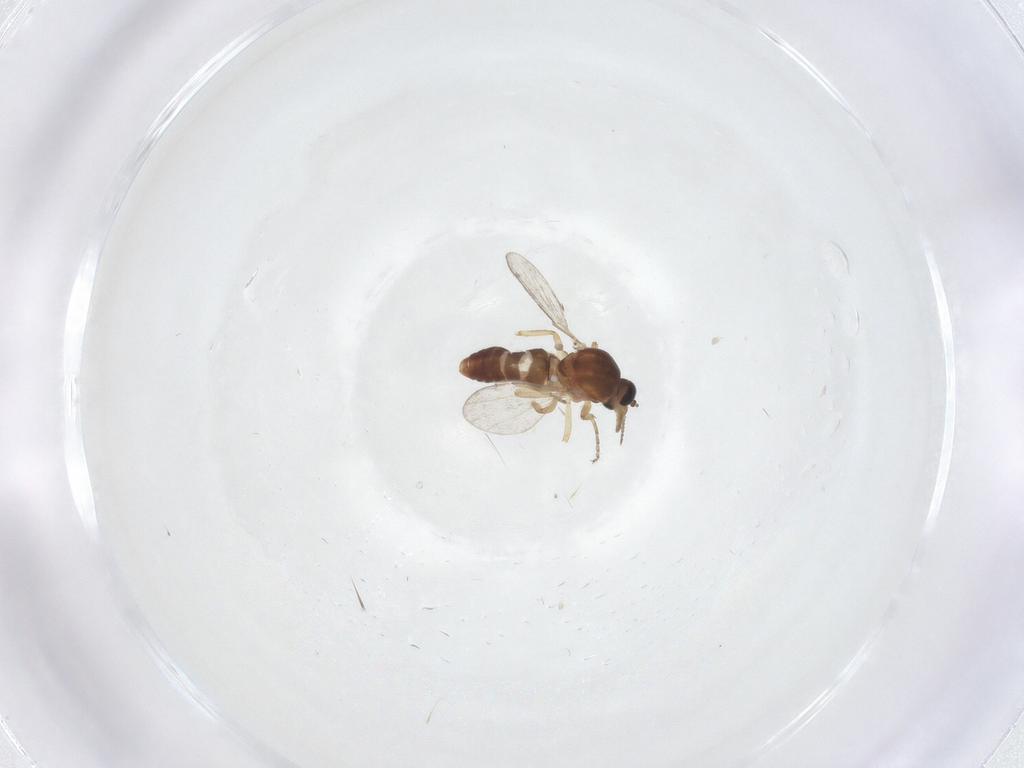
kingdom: Animalia
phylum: Arthropoda
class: Insecta
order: Diptera
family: Ceratopogonidae
